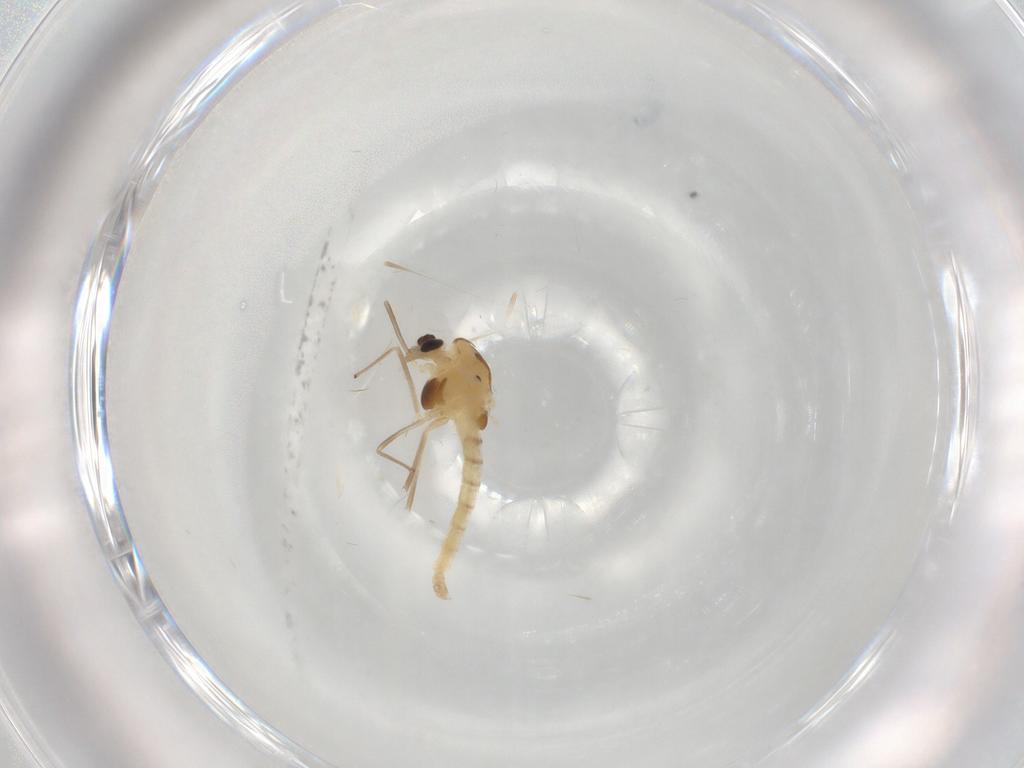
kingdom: Animalia
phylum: Arthropoda
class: Insecta
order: Diptera
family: Chironomidae
